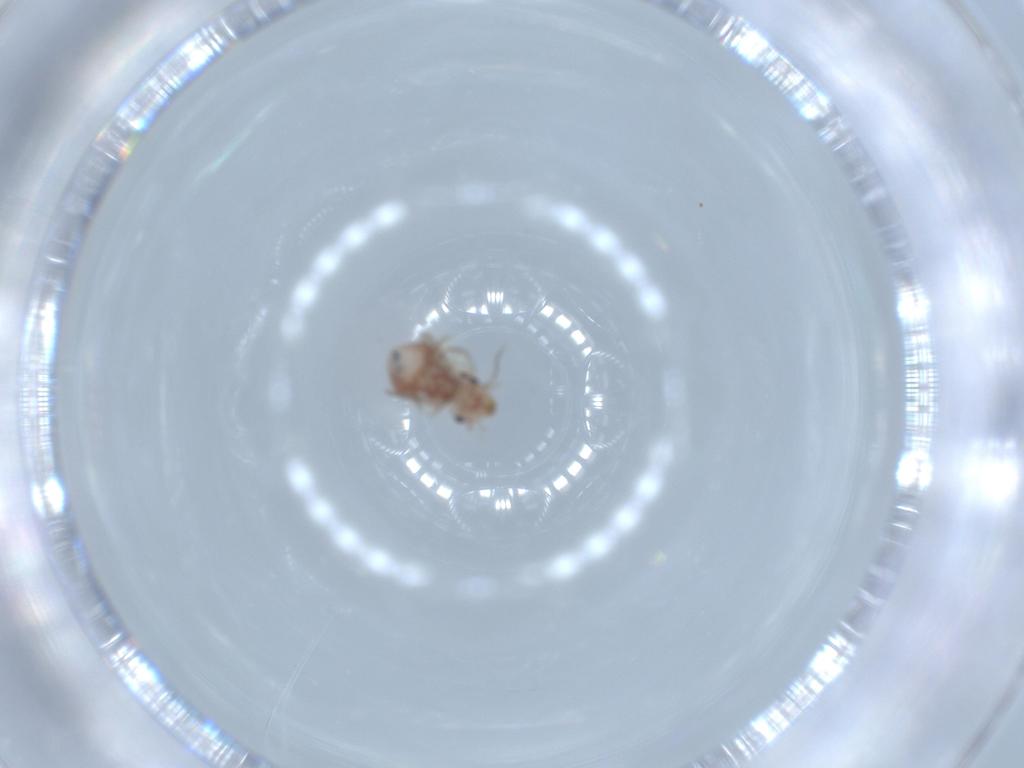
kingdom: Animalia
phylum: Arthropoda
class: Insecta
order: Psocodea
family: Ectopsocidae
